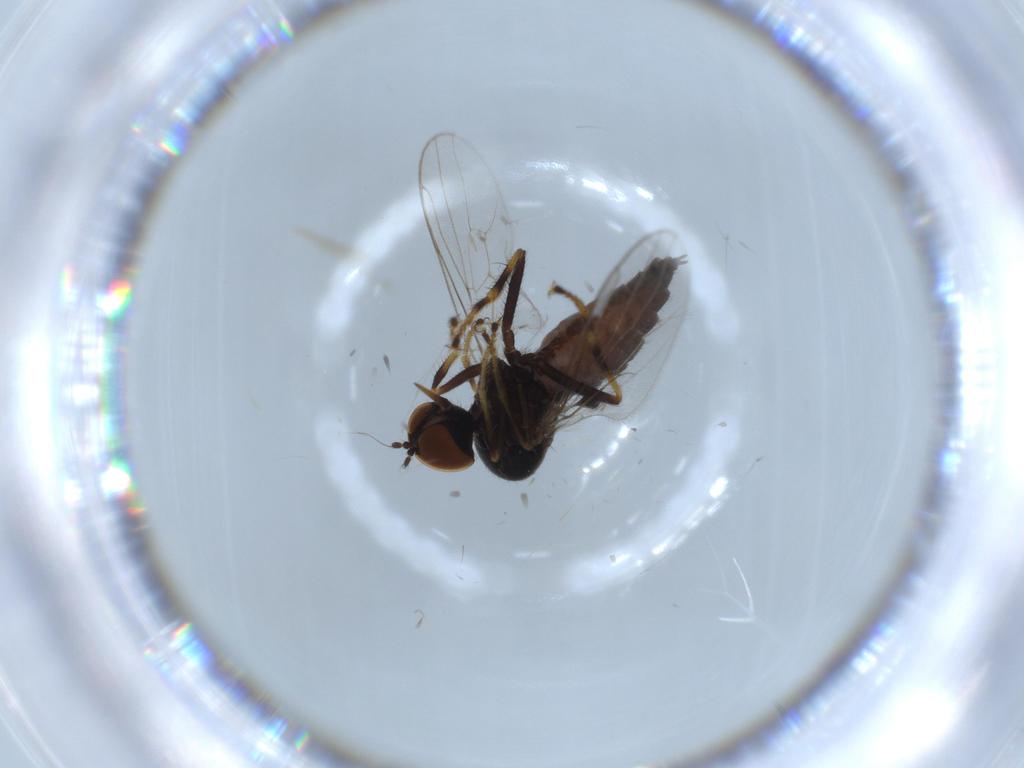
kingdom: Animalia
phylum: Arthropoda
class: Insecta
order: Diptera
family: Hybotidae
